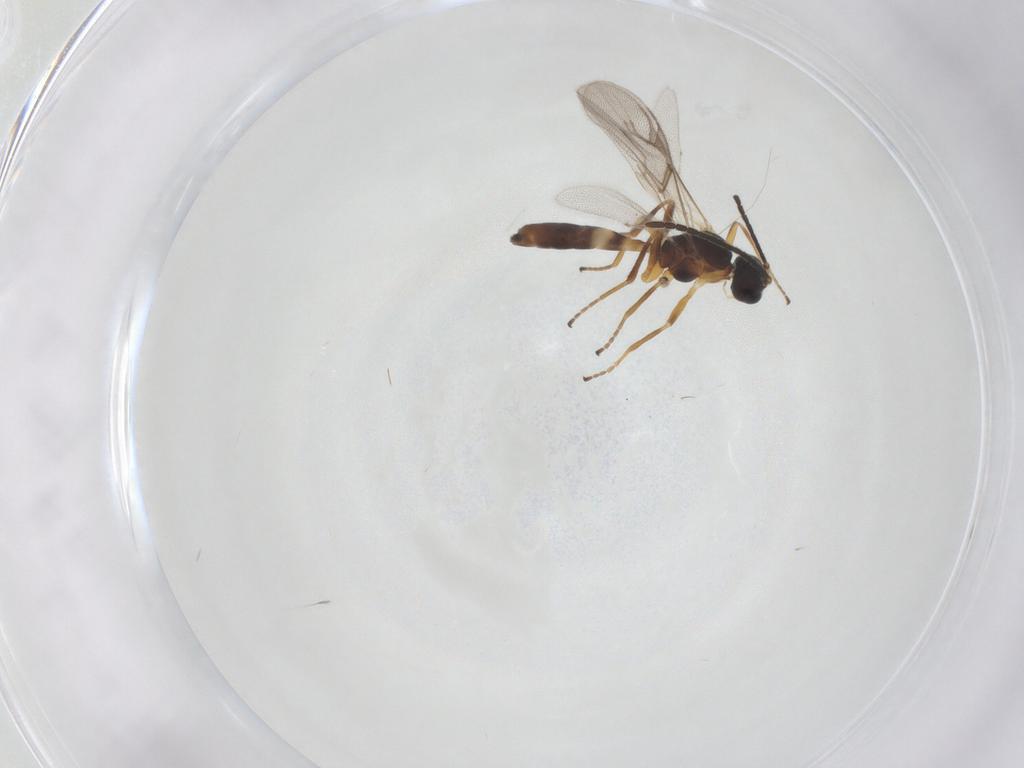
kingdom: Animalia
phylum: Arthropoda
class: Insecta
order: Hymenoptera
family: Braconidae
